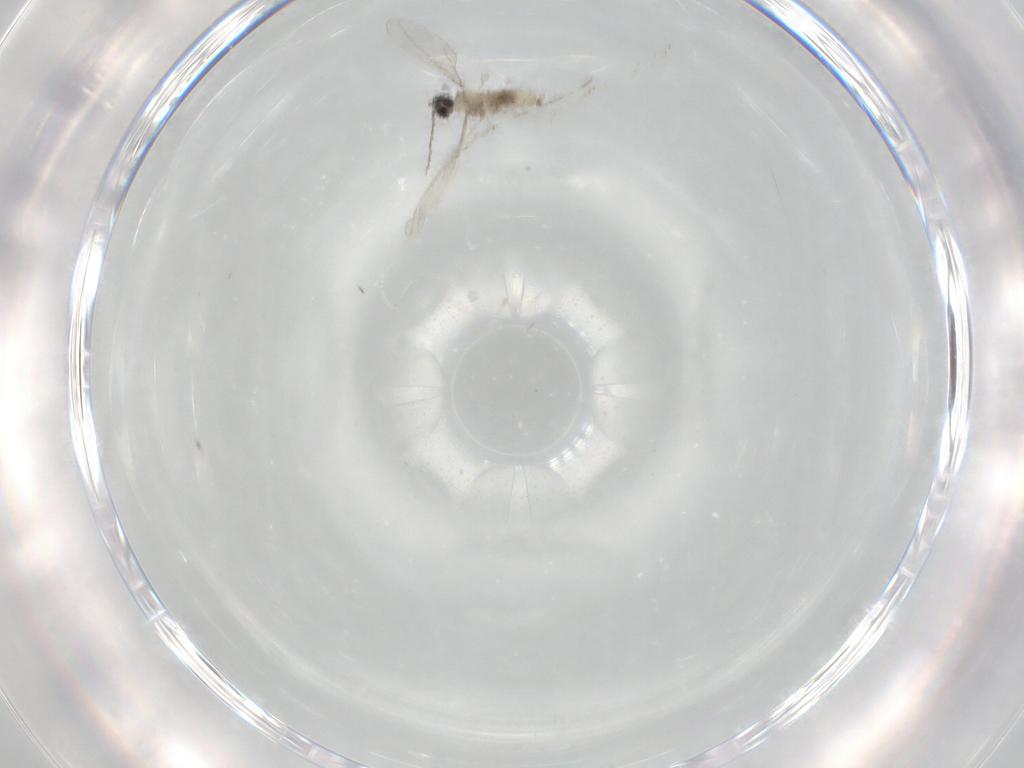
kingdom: Animalia
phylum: Arthropoda
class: Insecta
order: Diptera
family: Cecidomyiidae
